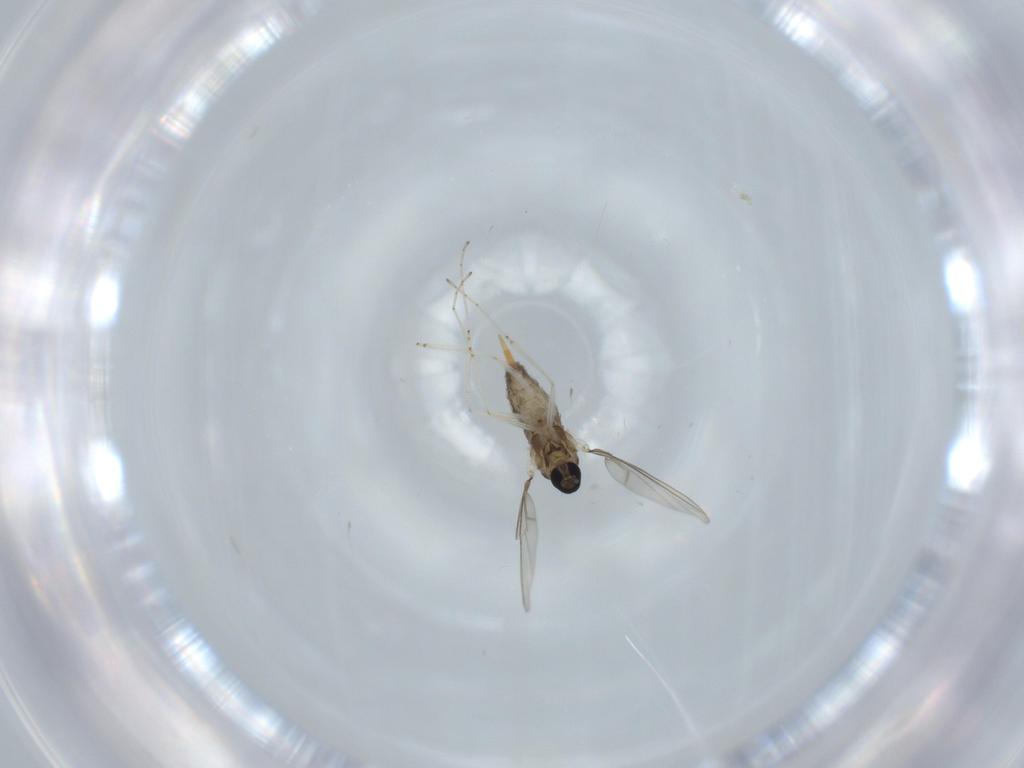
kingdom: Animalia
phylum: Arthropoda
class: Insecta
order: Diptera
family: Cecidomyiidae
